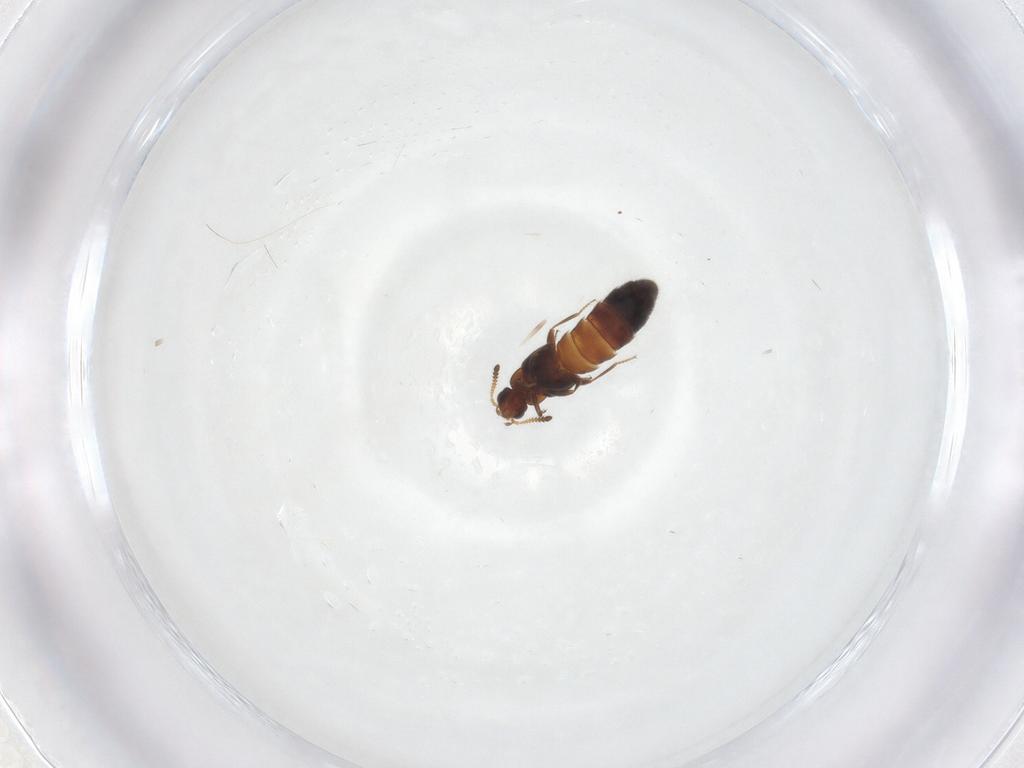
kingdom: Animalia
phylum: Arthropoda
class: Insecta
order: Coleoptera
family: Staphylinidae
